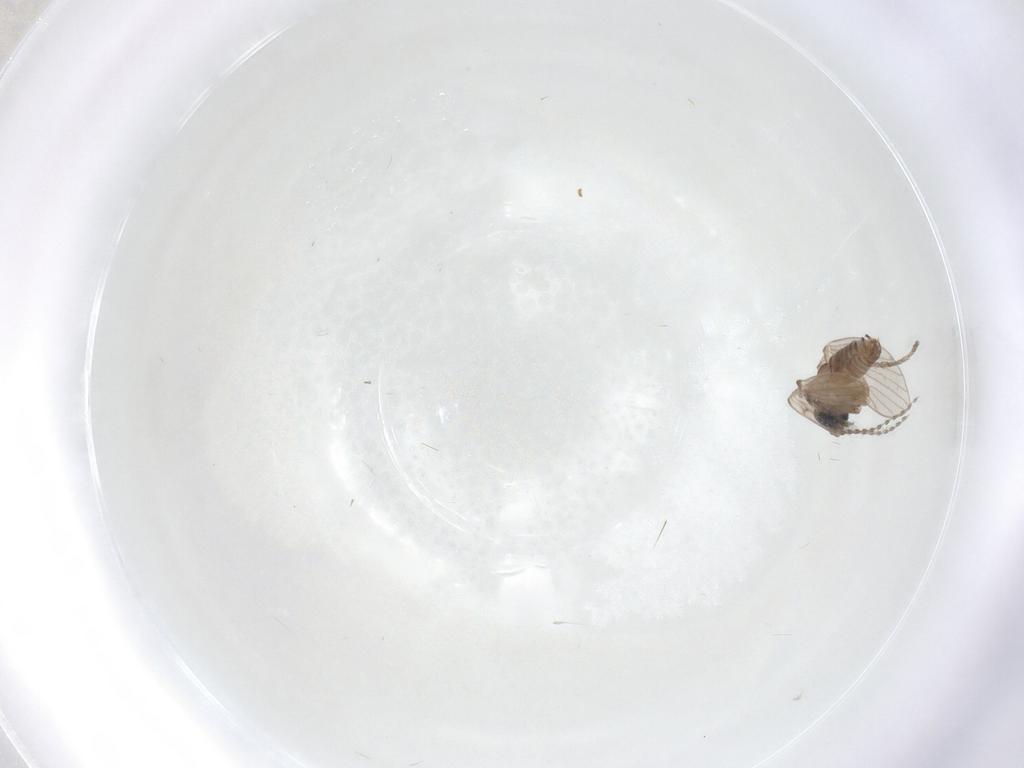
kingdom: Animalia
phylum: Arthropoda
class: Insecta
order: Diptera
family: Psychodidae
